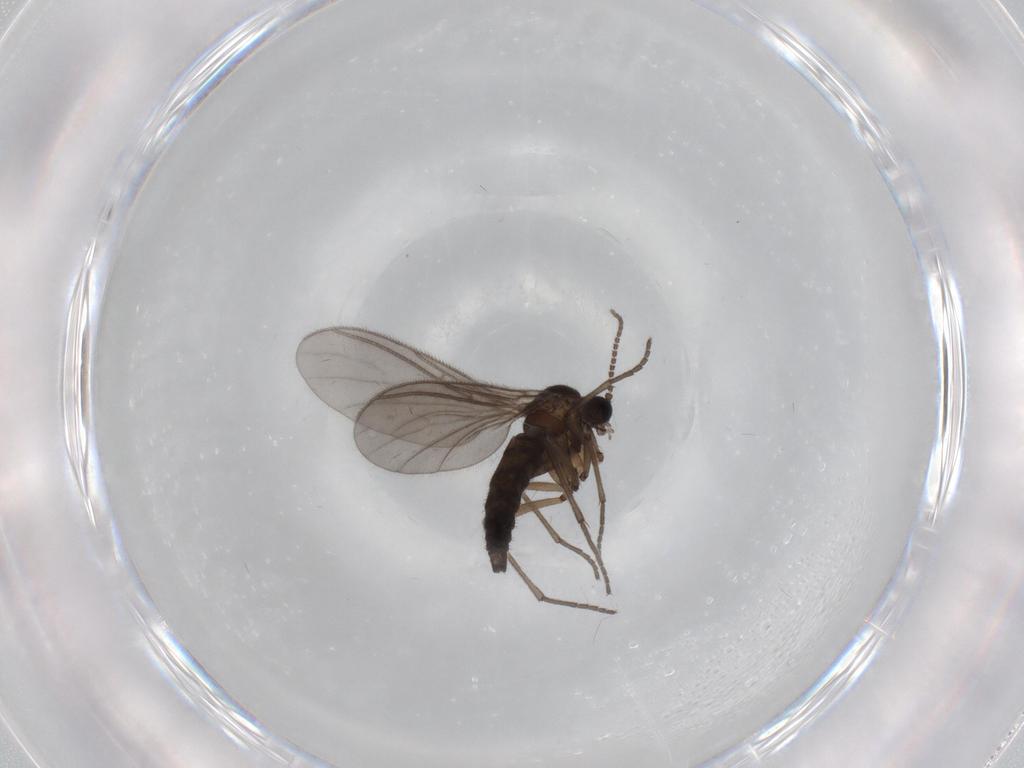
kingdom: Animalia
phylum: Arthropoda
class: Insecta
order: Diptera
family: Sciaridae
